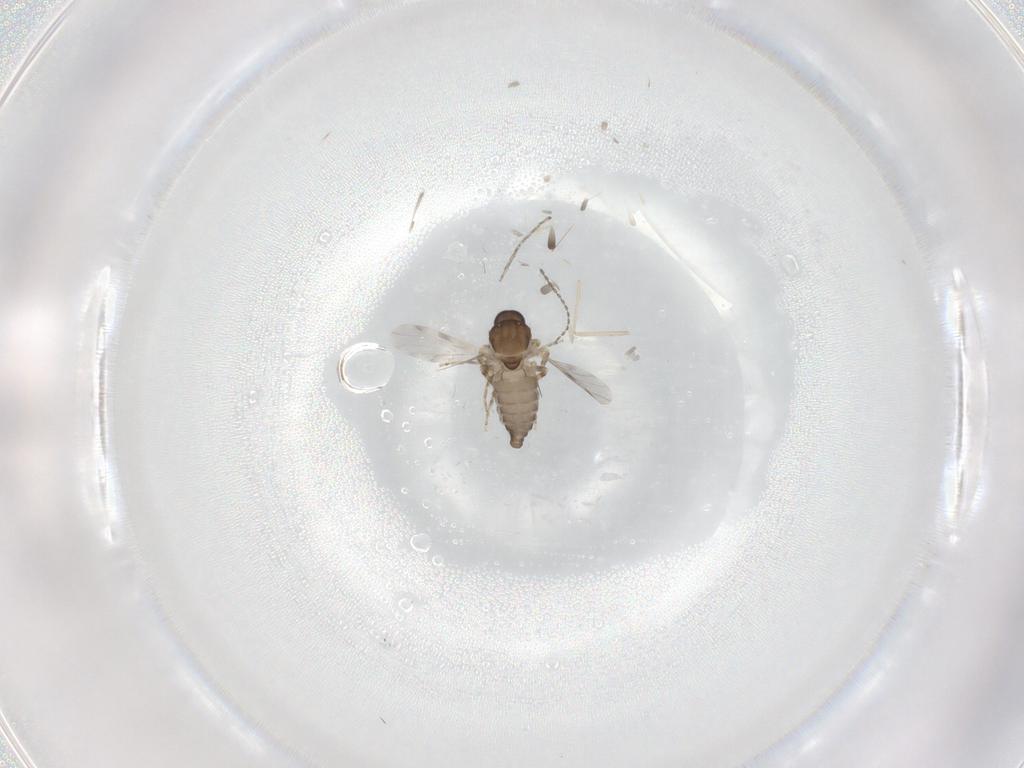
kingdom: Animalia
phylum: Arthropoda
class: Insecta
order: Diptera
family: Ceratopogonidae
